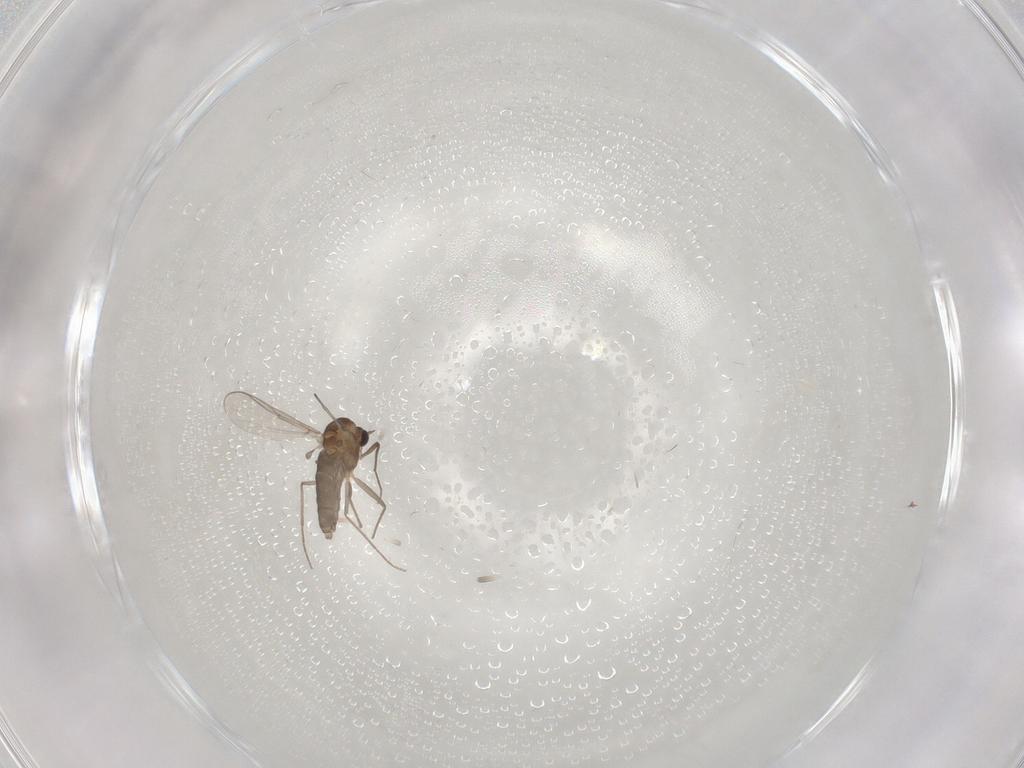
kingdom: Animalia
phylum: Arthropoda
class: Insecta
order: Diptera
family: Chironomidae
